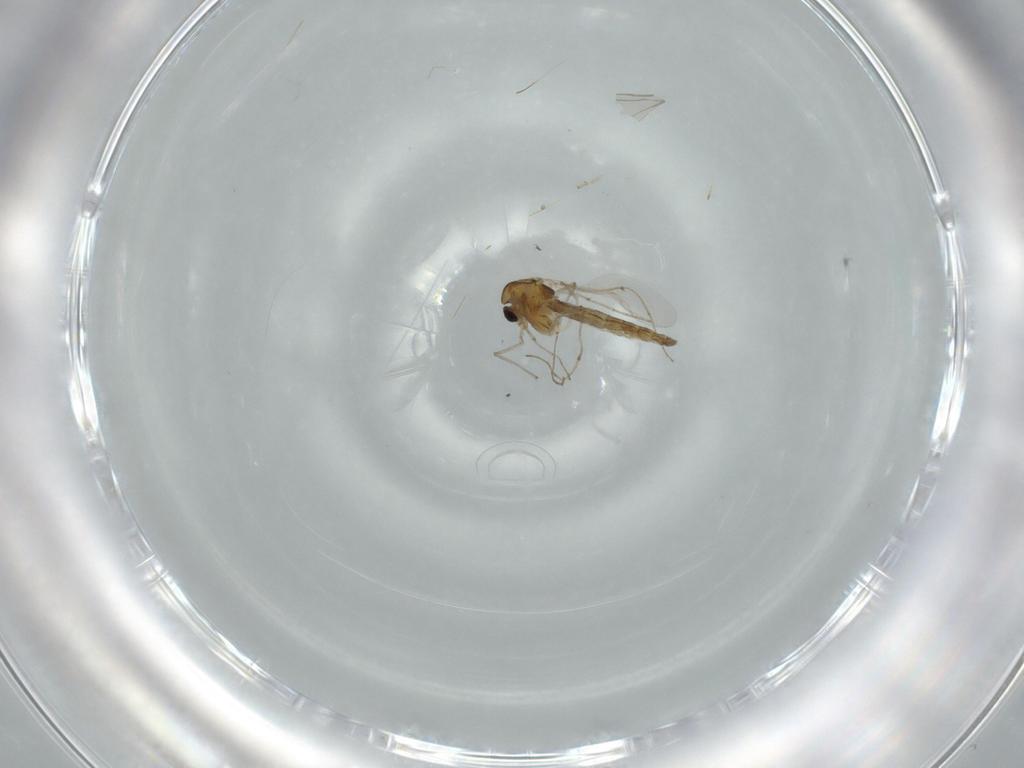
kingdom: Animalia
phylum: Arthropoda
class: Insecta
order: Diptera
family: Chironomidae
